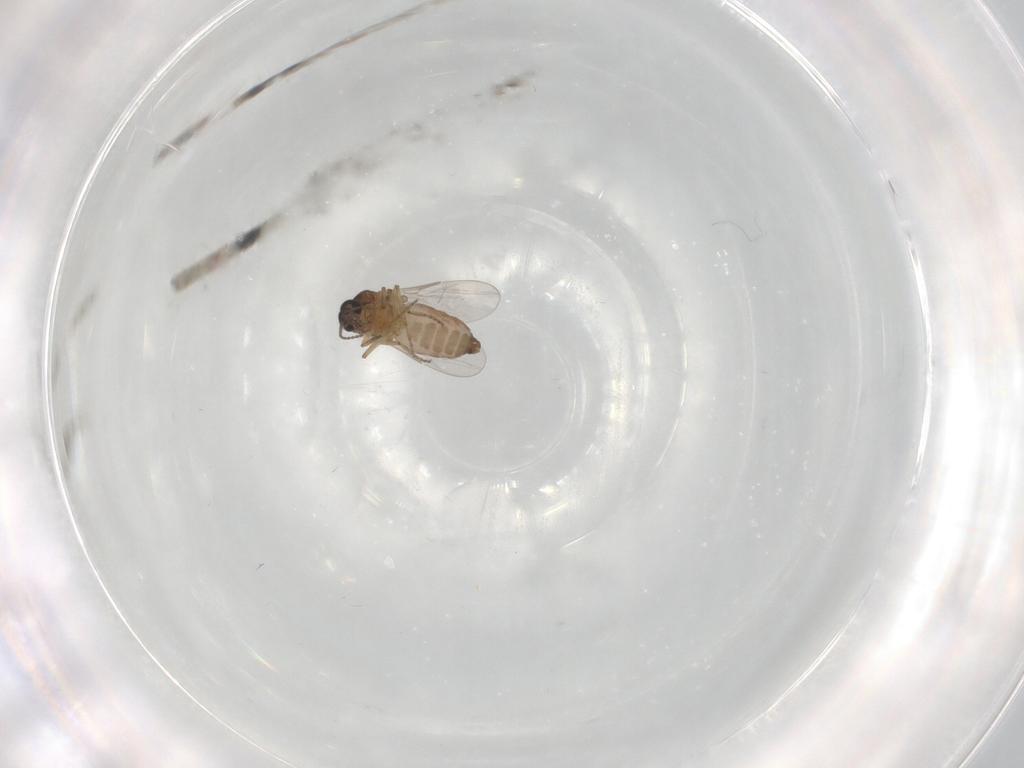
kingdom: Animalia
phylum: Arthropoda
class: Insecta
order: Diptera
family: Ceratopogonidae
